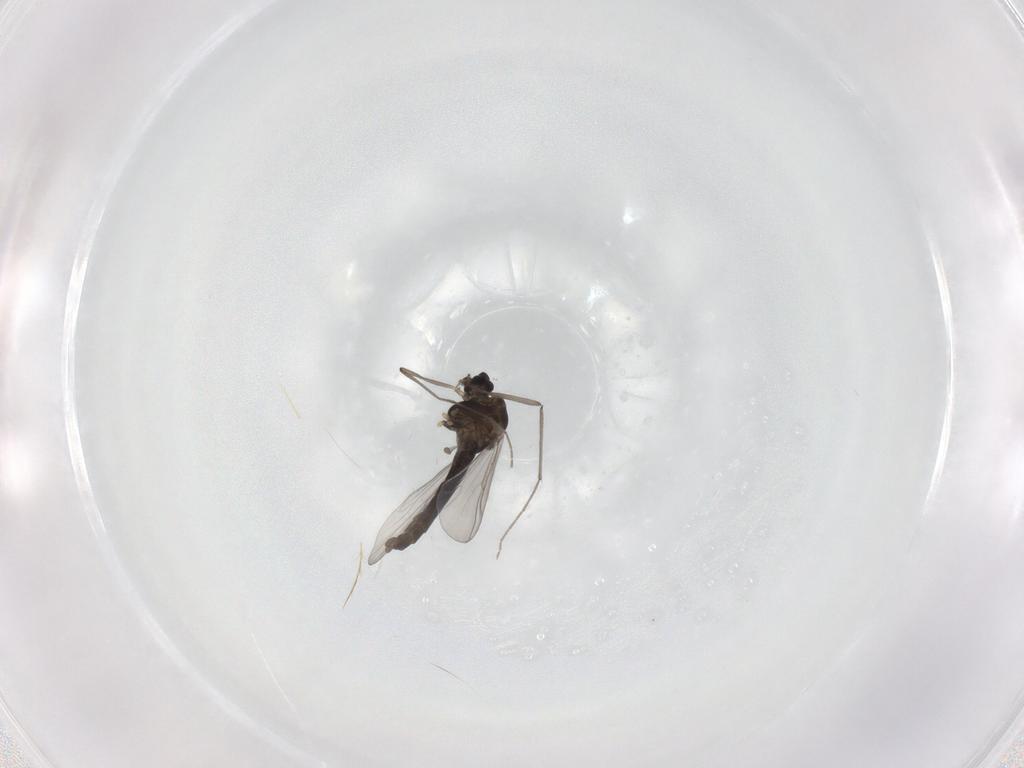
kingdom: Animalia
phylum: Arthropoda
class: Insecta
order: Diptera
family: Chironomidae
